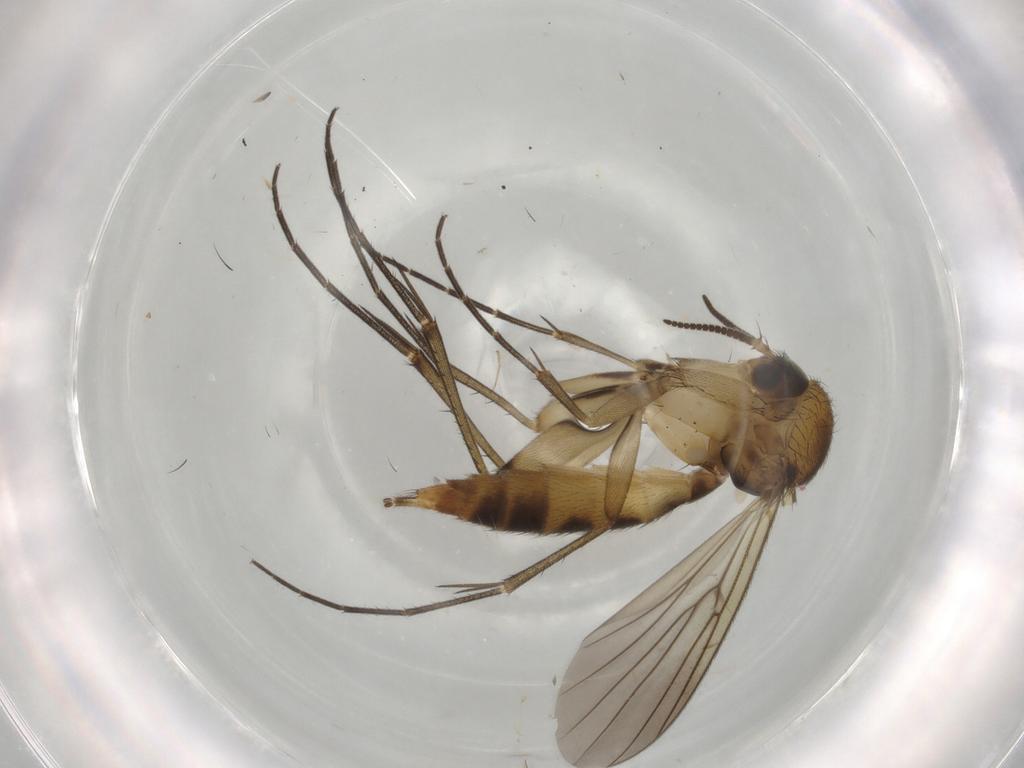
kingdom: Animalia
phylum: Arthropoda
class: Insecta
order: Diptera
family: Mycetophilidae
